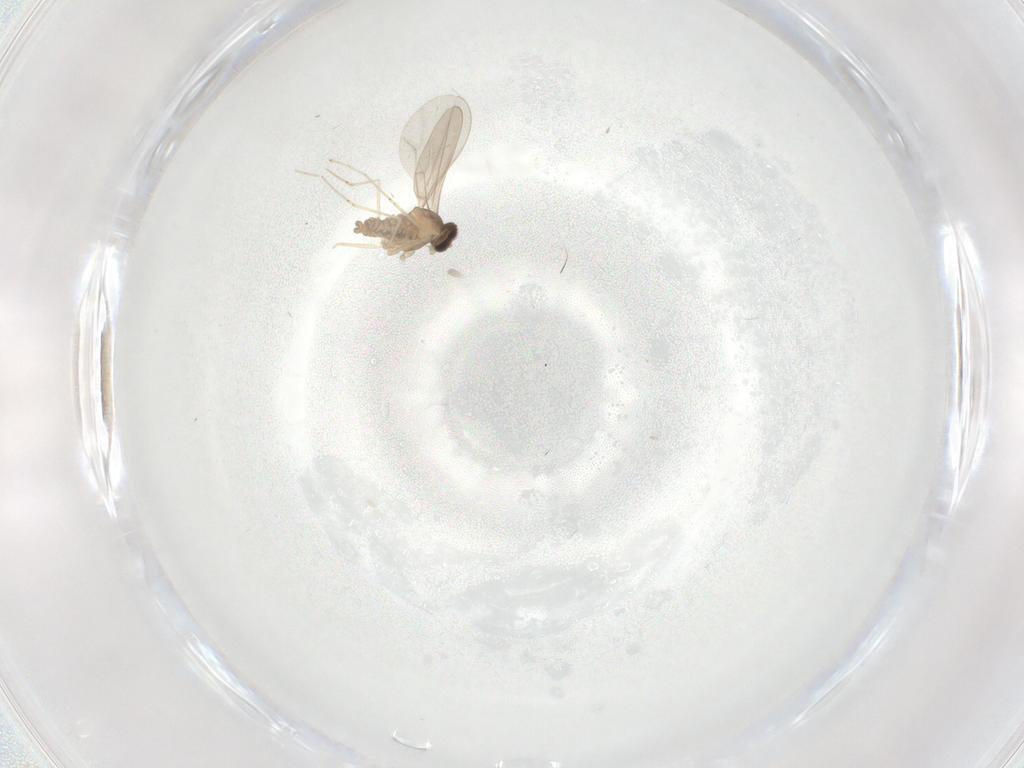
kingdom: Animalia
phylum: Arthropoda
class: Insecta
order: Diptera
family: Cecidomyiidae
